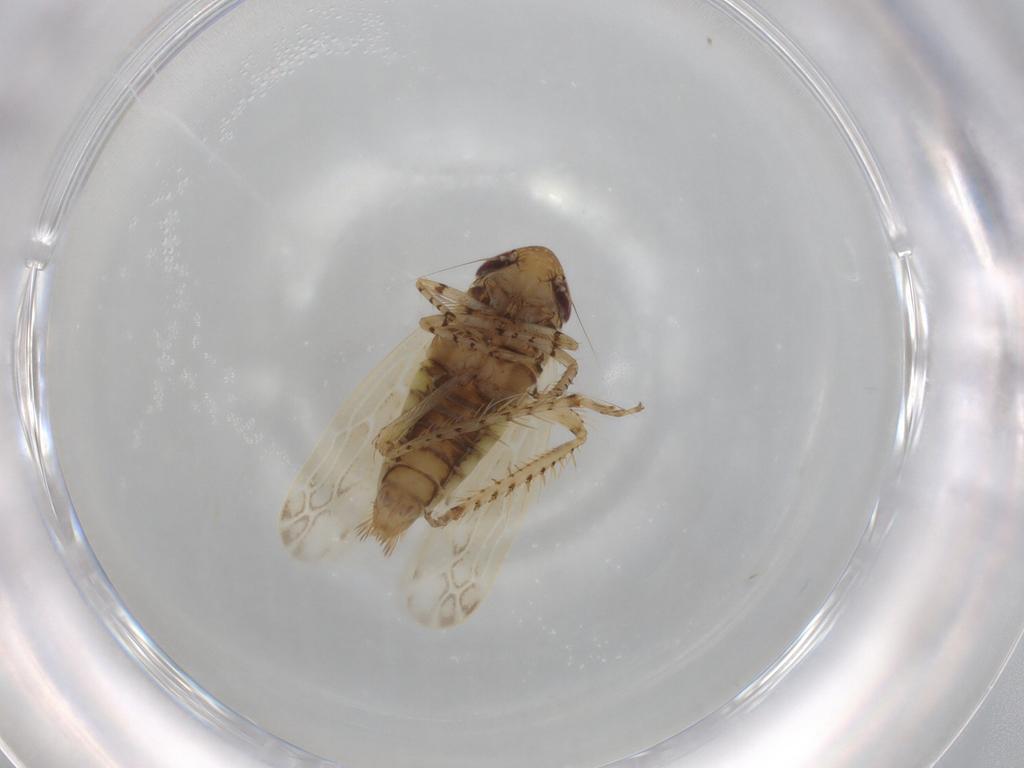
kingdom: Animalia
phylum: Arthropoda
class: Insecta
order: Hemiptera
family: Cicadellidae
